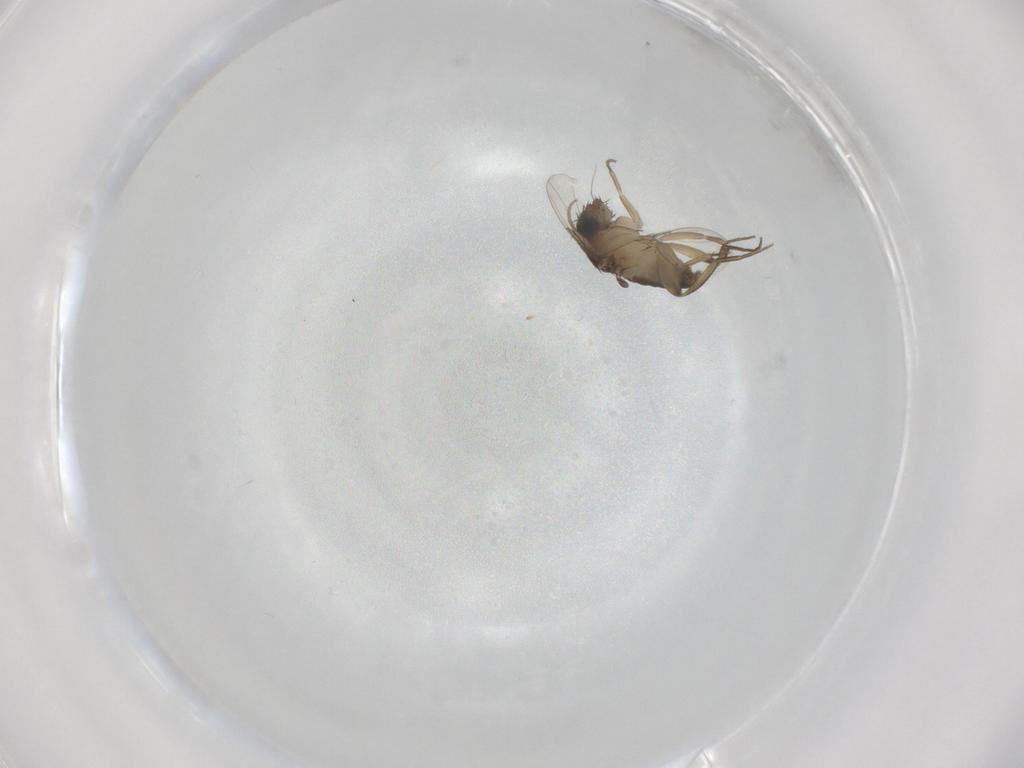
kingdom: Animalia
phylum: Arthropoda
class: Insecta
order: Diptera
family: Phoridae
